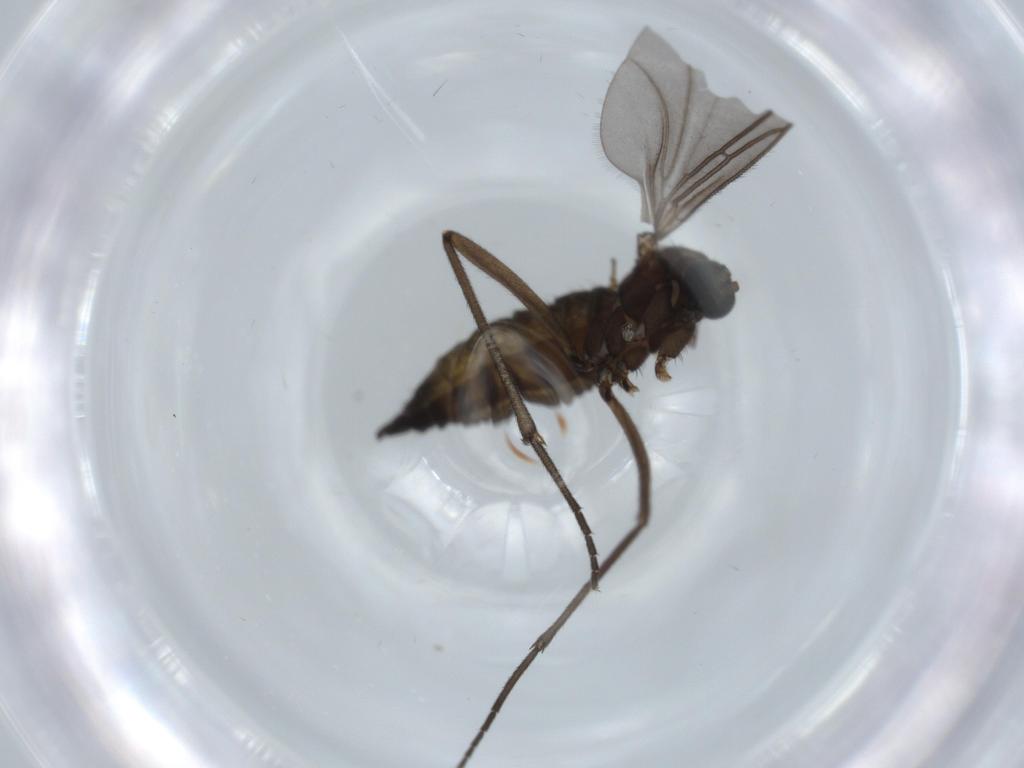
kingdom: Animalia
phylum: Arthropoda
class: Insecta
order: Diptera
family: Sciaridae
